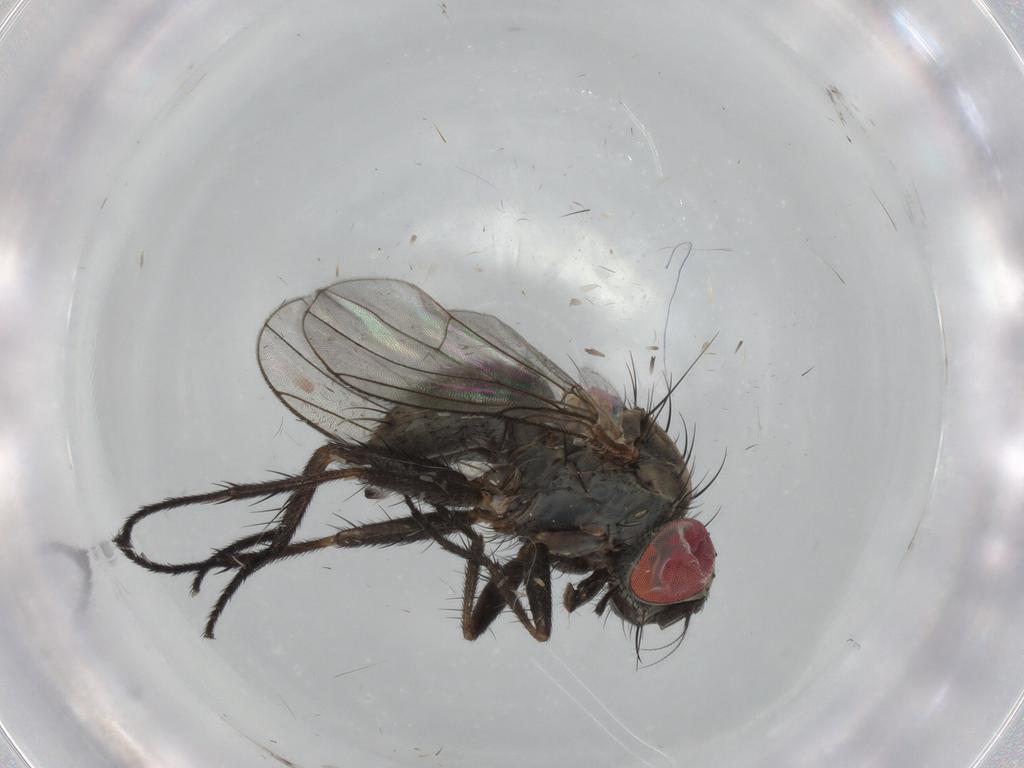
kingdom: Animalia
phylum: Arthropoda
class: Insecta
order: Diptera
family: Muscidae
